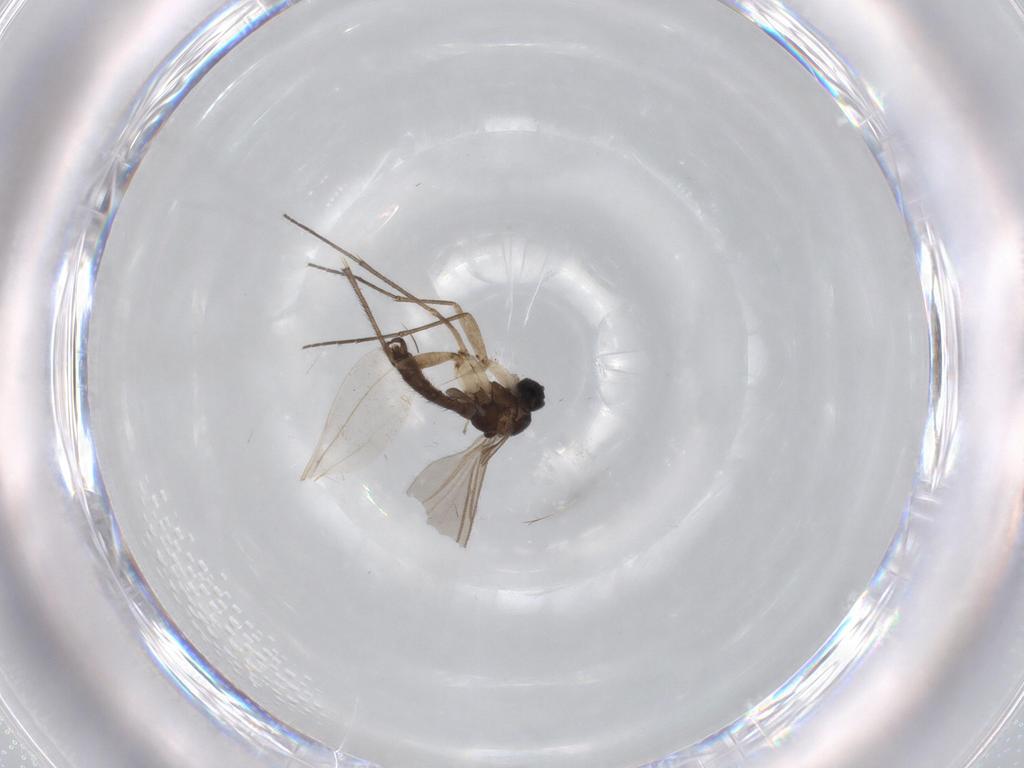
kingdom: Animalia
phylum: Arthropoda
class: Insecta
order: Diptera
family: Sciaridae
